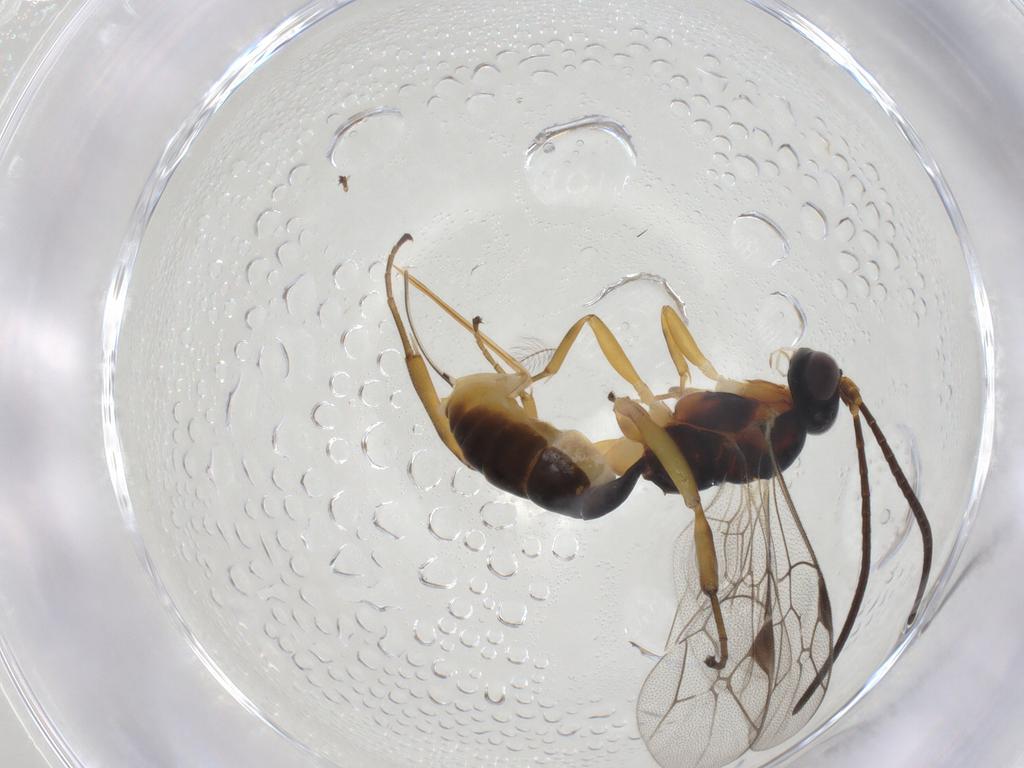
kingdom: Animalia
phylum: Arthropoda
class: Insecta
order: Hymenoptera
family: Ichneumonidae
